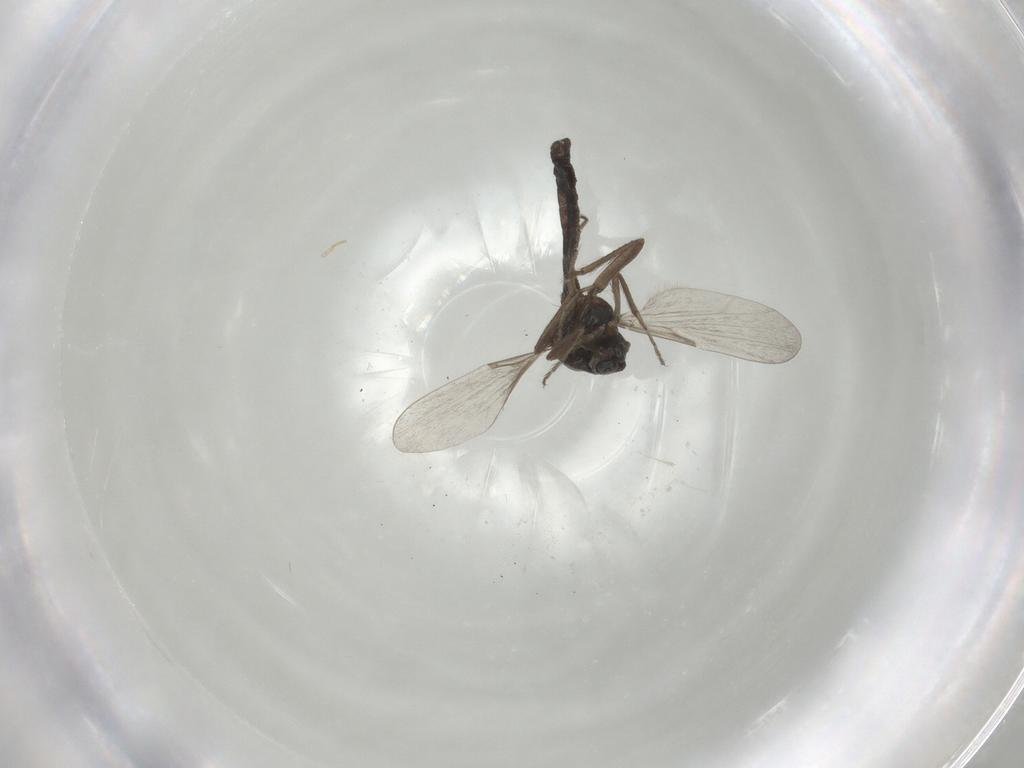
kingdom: Animalia
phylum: Arthropoda
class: Insecta
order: Diptera
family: Ceratopogonidae
